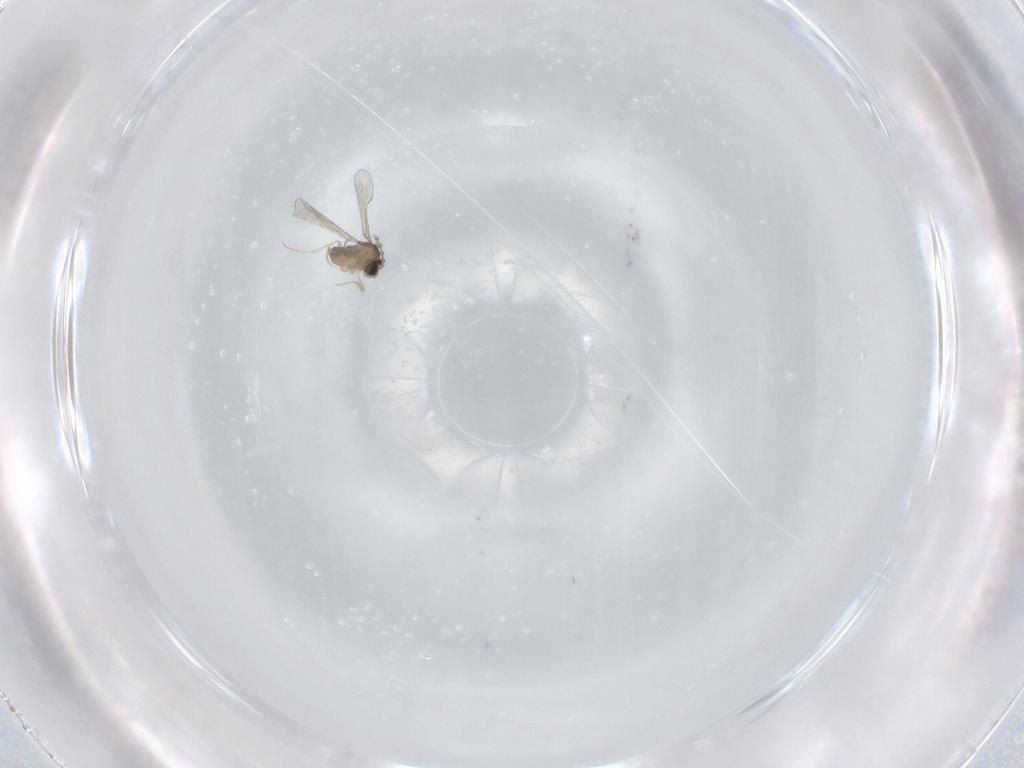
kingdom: Animalia
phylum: Arthropoda
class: Insecta
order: Diptera
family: Cecidomyiidae
